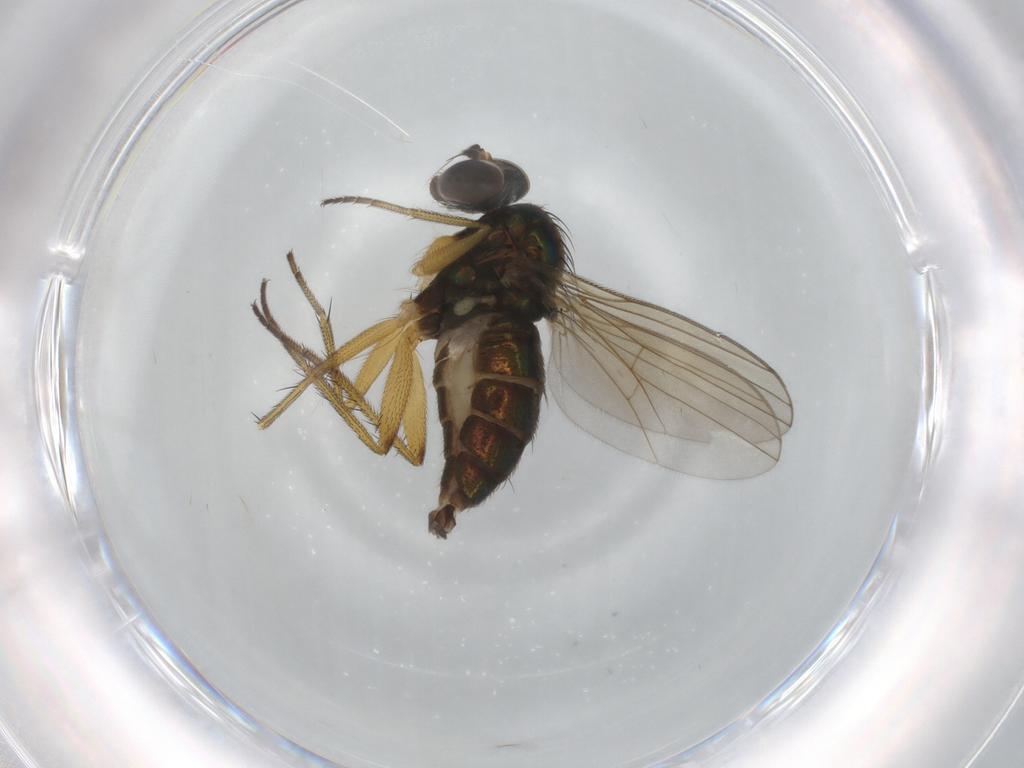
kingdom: Animalia
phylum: Arthropoda
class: Insecta
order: Diptera
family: Dolichopodidae
